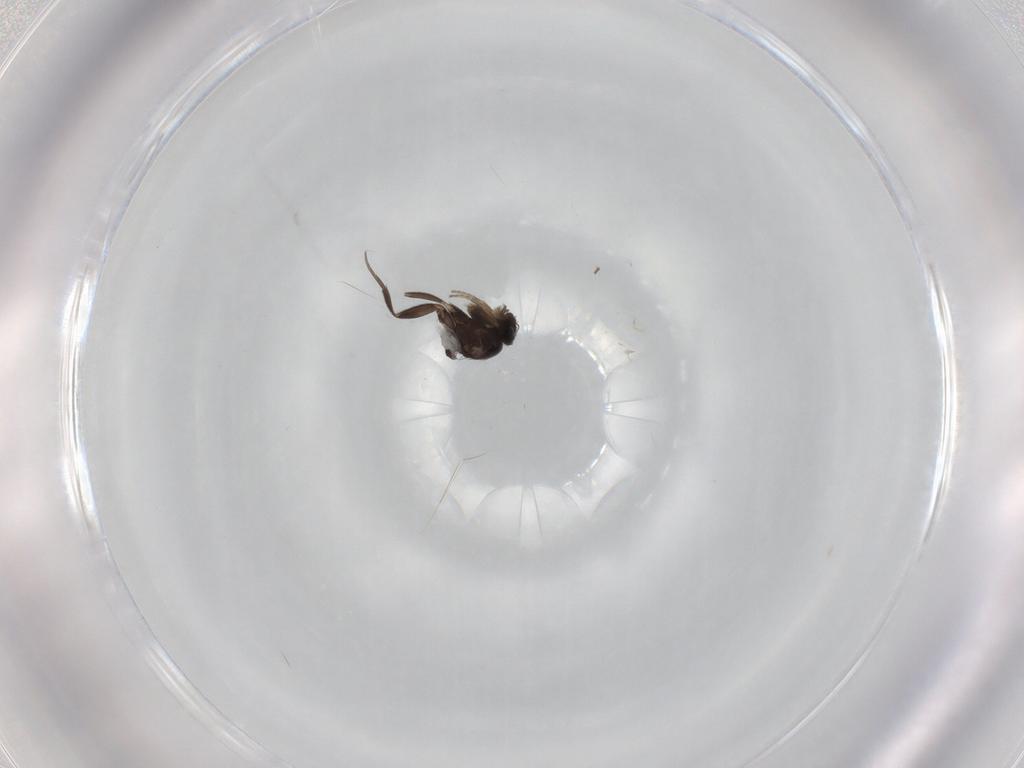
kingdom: Animalia
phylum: Arthropoda
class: Insecta
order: Diptera
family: Phoridae
